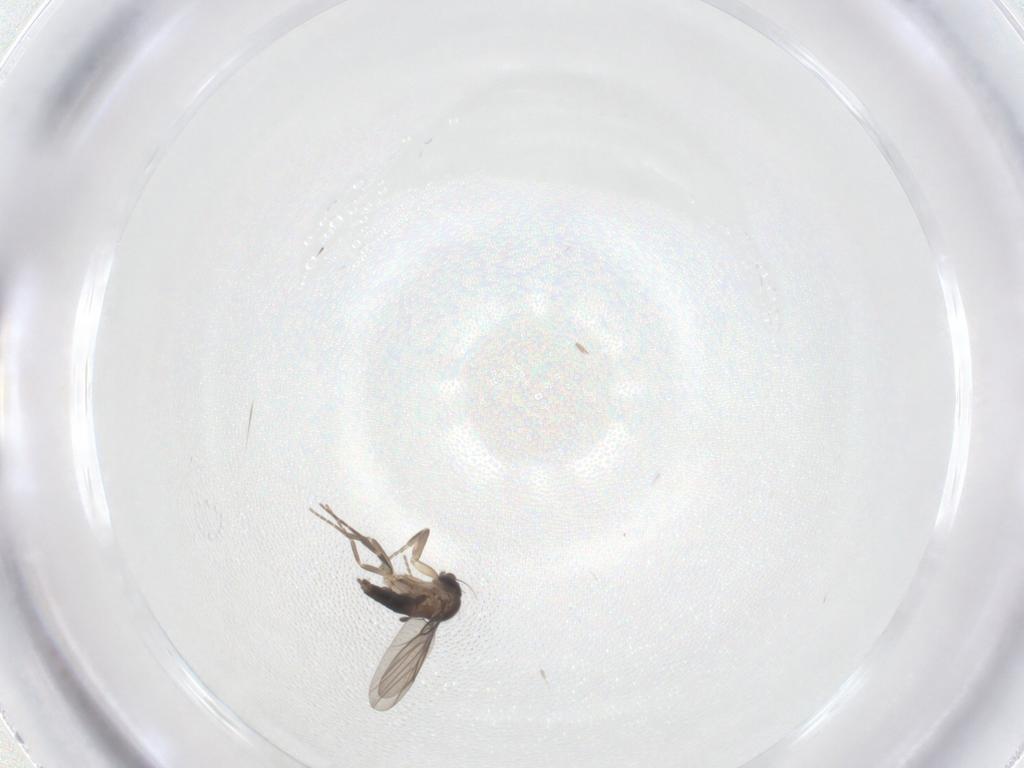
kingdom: Animalia
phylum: Arthropoda
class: Insecta
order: Diptera
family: Phoridae
